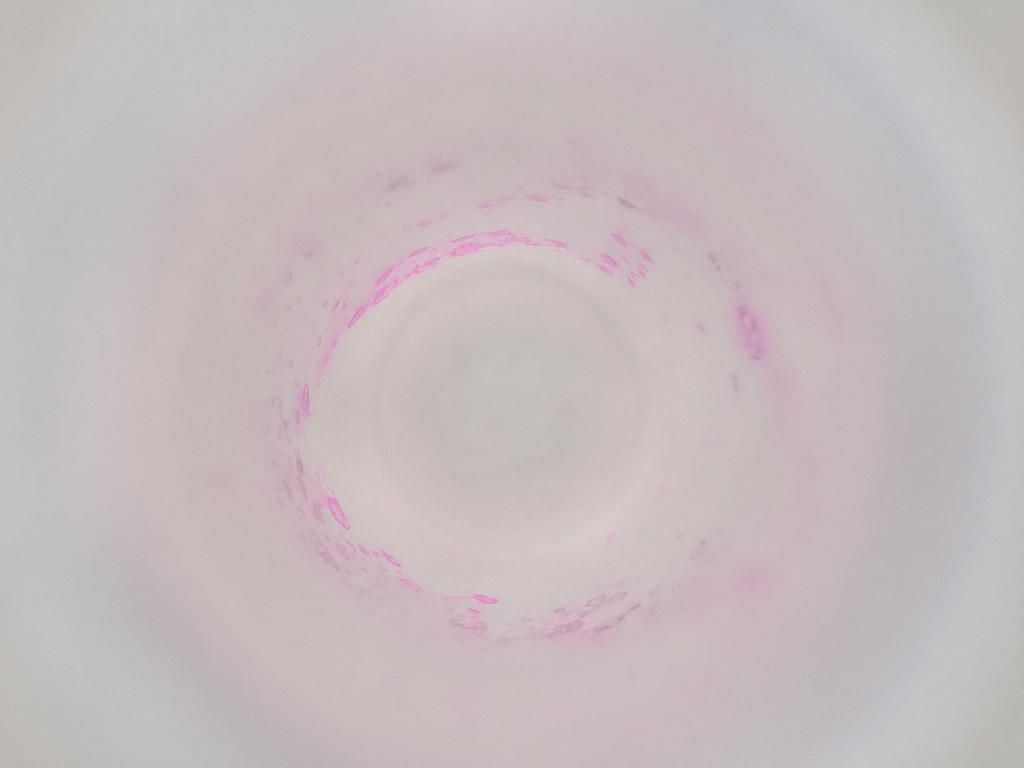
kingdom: Animalia
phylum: Arthropoda
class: Insecta
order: Diptera
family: Cecidomyiidae
